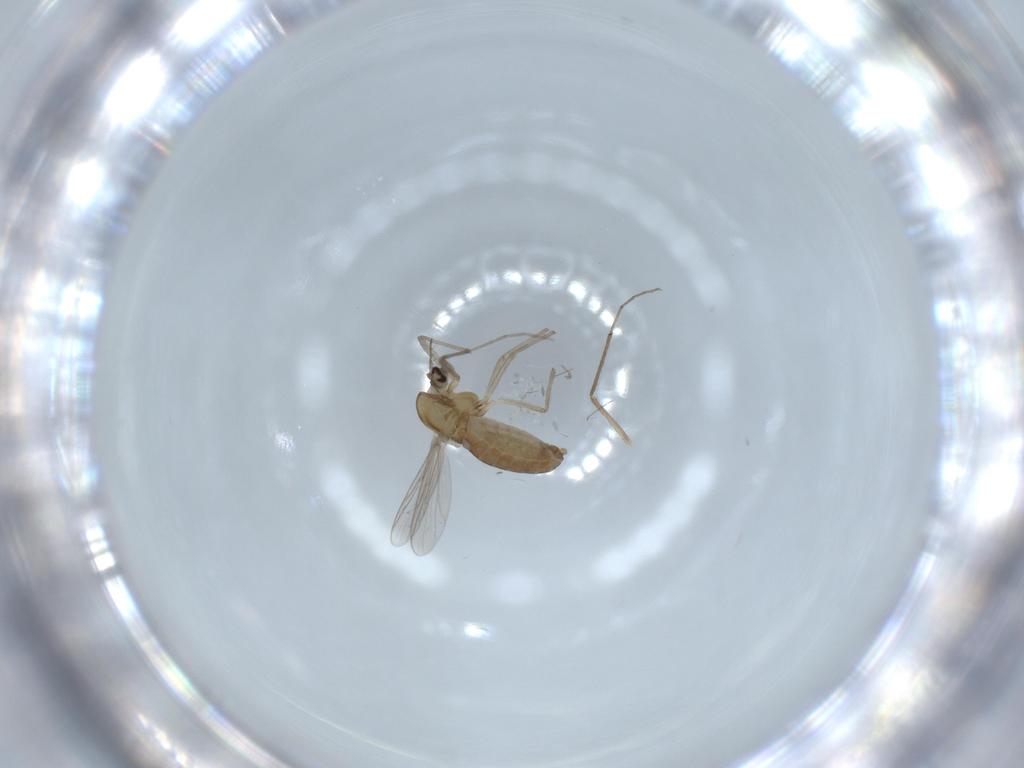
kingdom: Animalia
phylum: Arthropoda
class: Insecta
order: Diptera
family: Chironomidae
